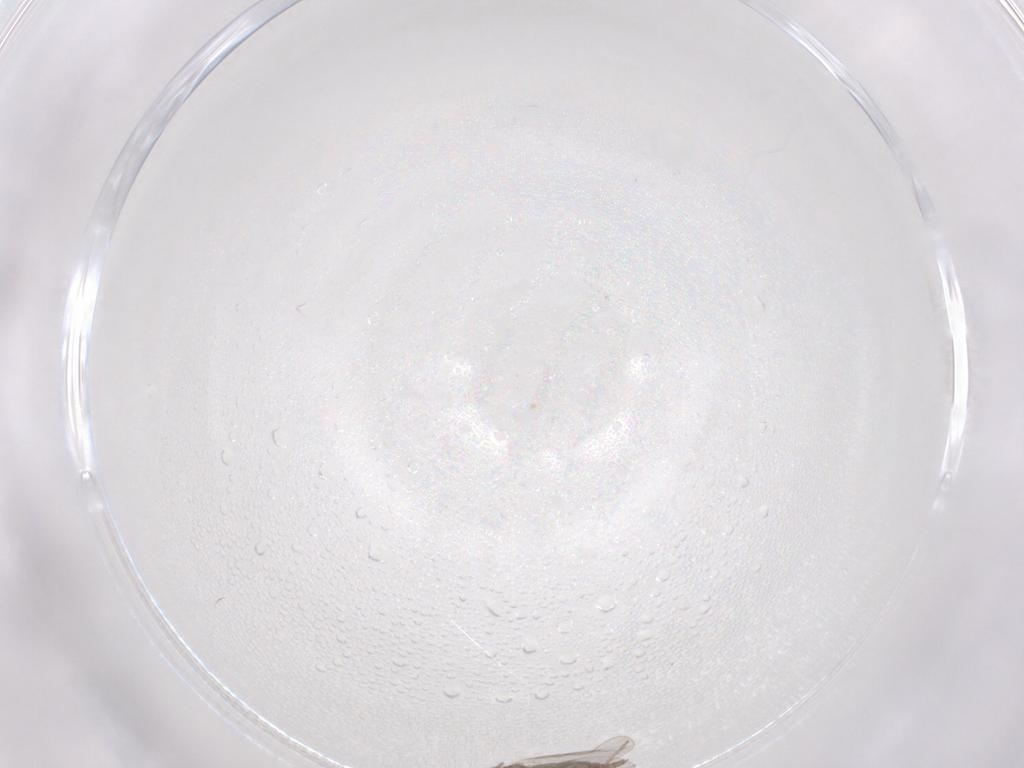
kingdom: Animalia
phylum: Arthropoda
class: Insecta
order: Diptera
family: Cecidomyiidae
